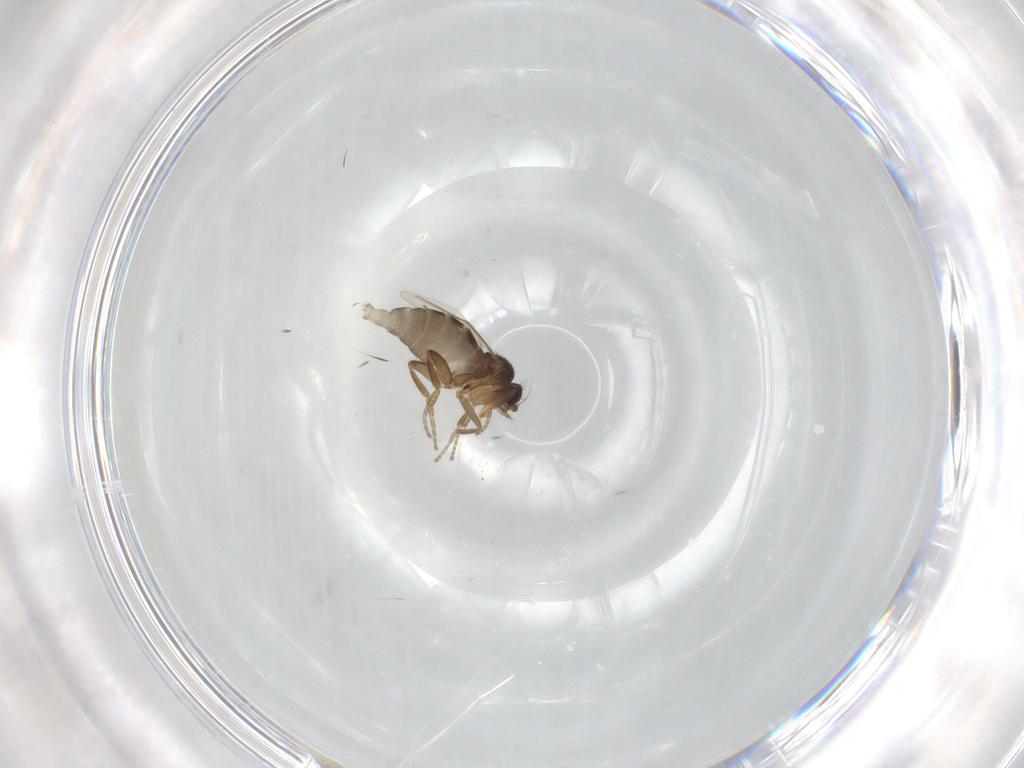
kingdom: Animalia
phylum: Arthropoda
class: Insecta
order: Diptera
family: Phoridae
